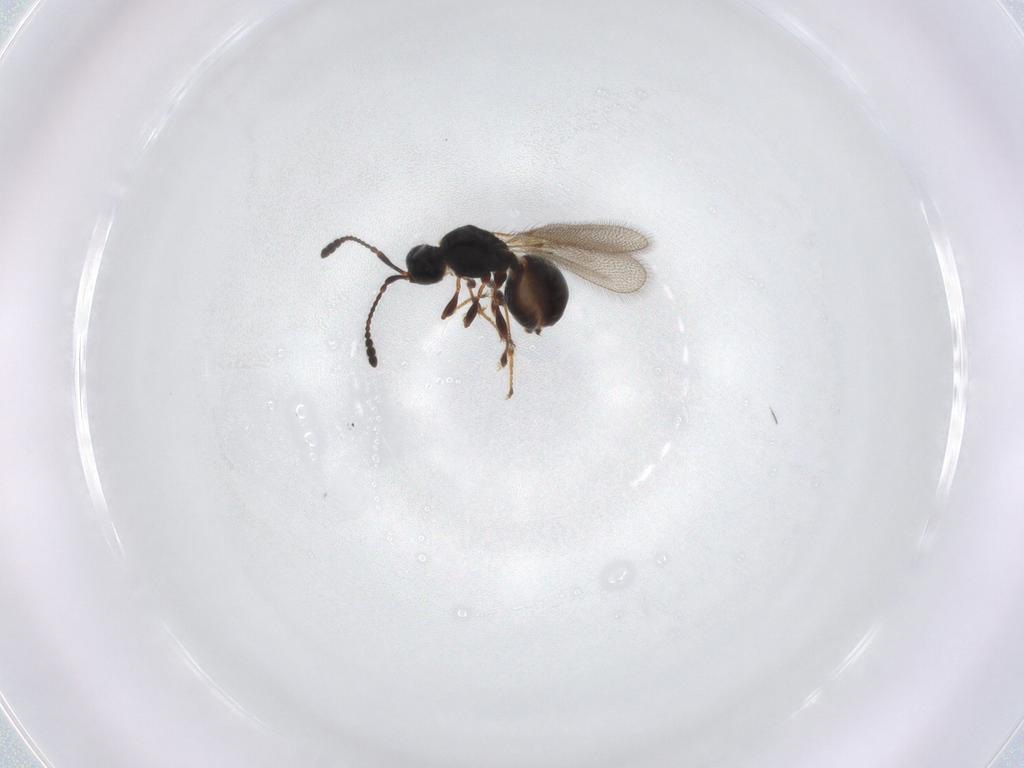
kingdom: Animalia
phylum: Arthropoda
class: Insecta
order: Hymenoptera
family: Diapriidae
